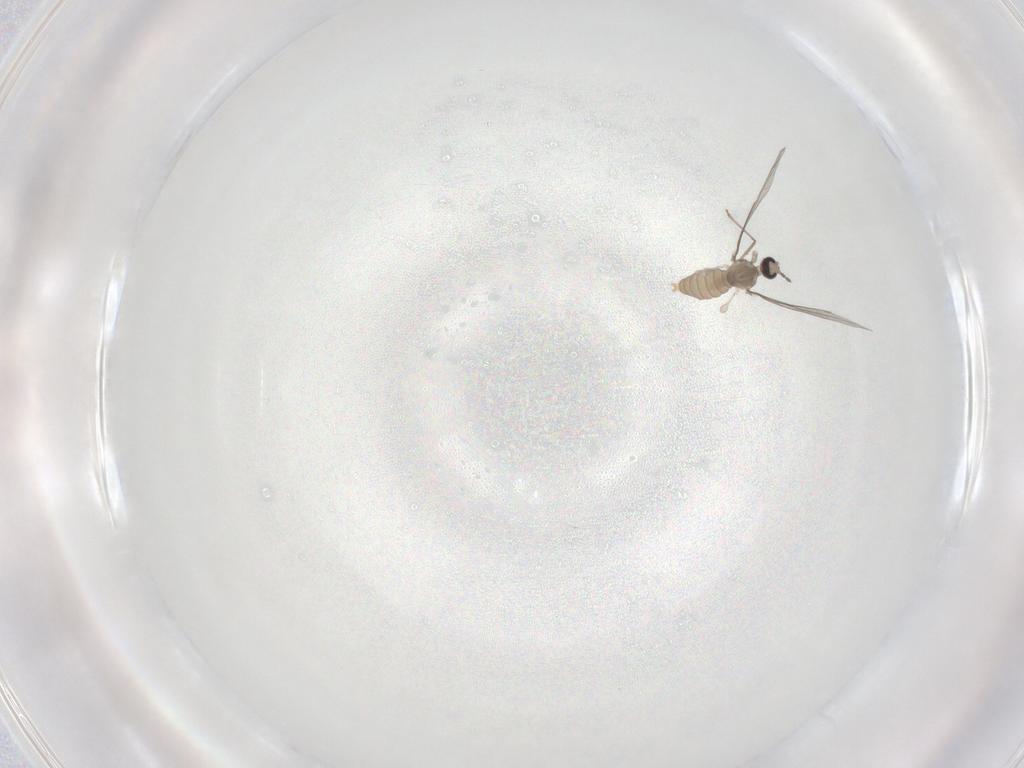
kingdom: Animalia
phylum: Arthropoda
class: Insecta
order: Diptera
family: Cecidomyiidae
